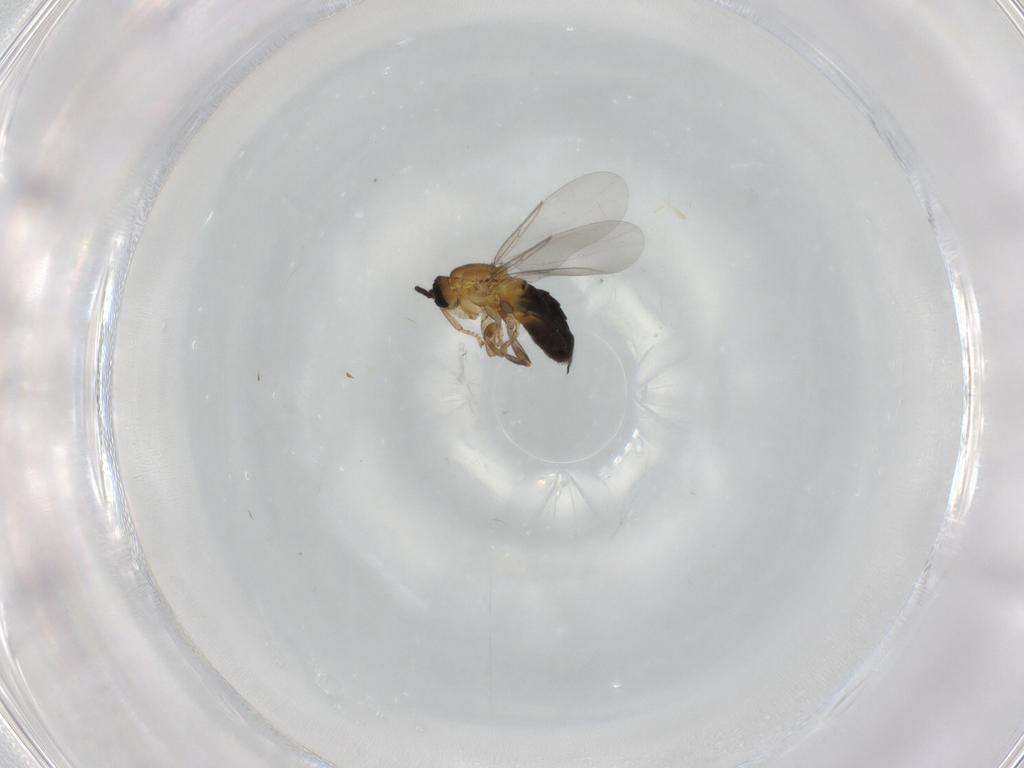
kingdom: Animalia
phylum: Arthropoda
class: Insecta
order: Diptera
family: Scatopsidae
